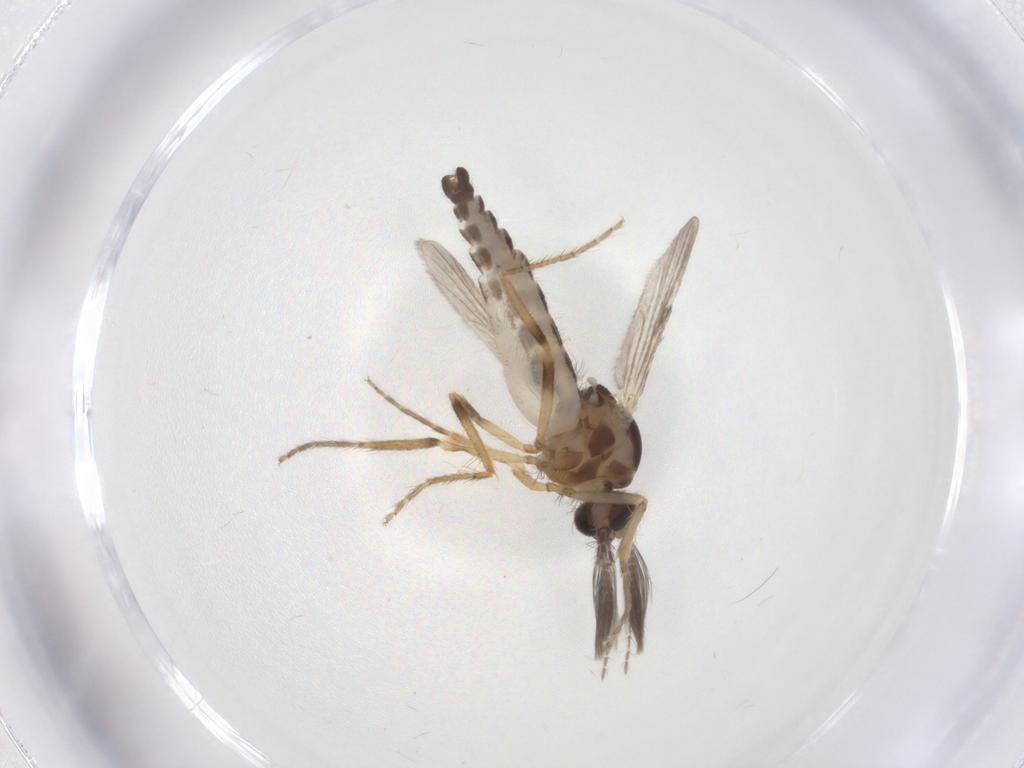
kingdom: Animalia
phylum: Arthropoda
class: Insecta
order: Diptera
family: Ceratopogonidae
